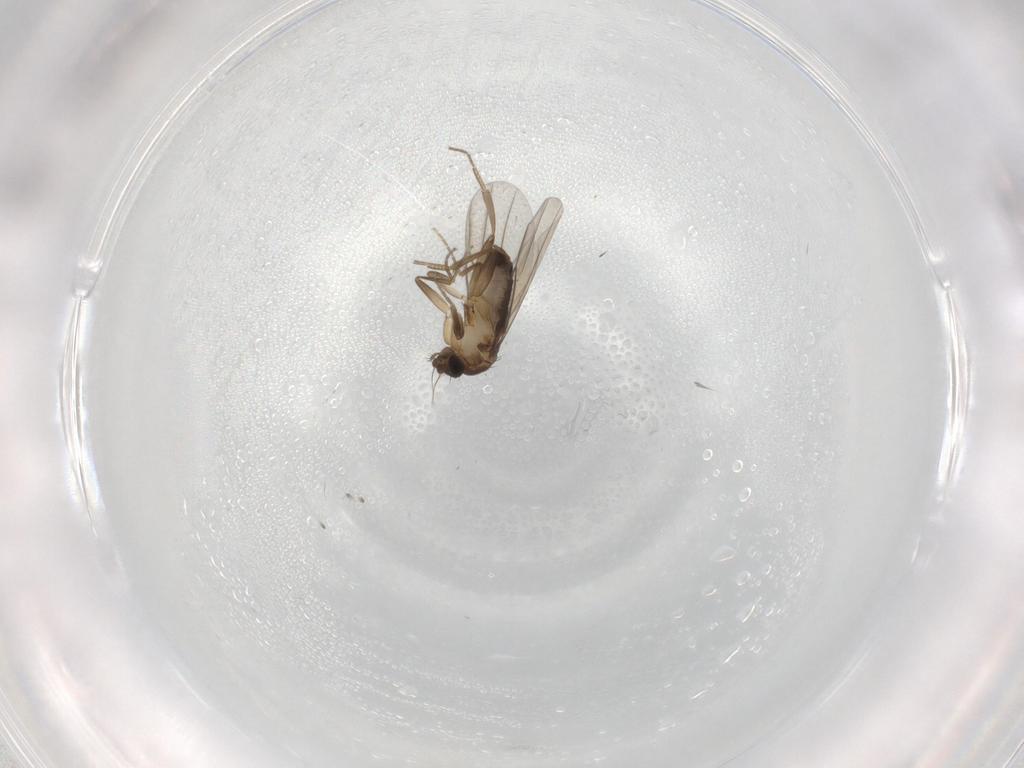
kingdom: Animalia
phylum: Arthropoda
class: Insecta
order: Diptera
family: Phoridae
